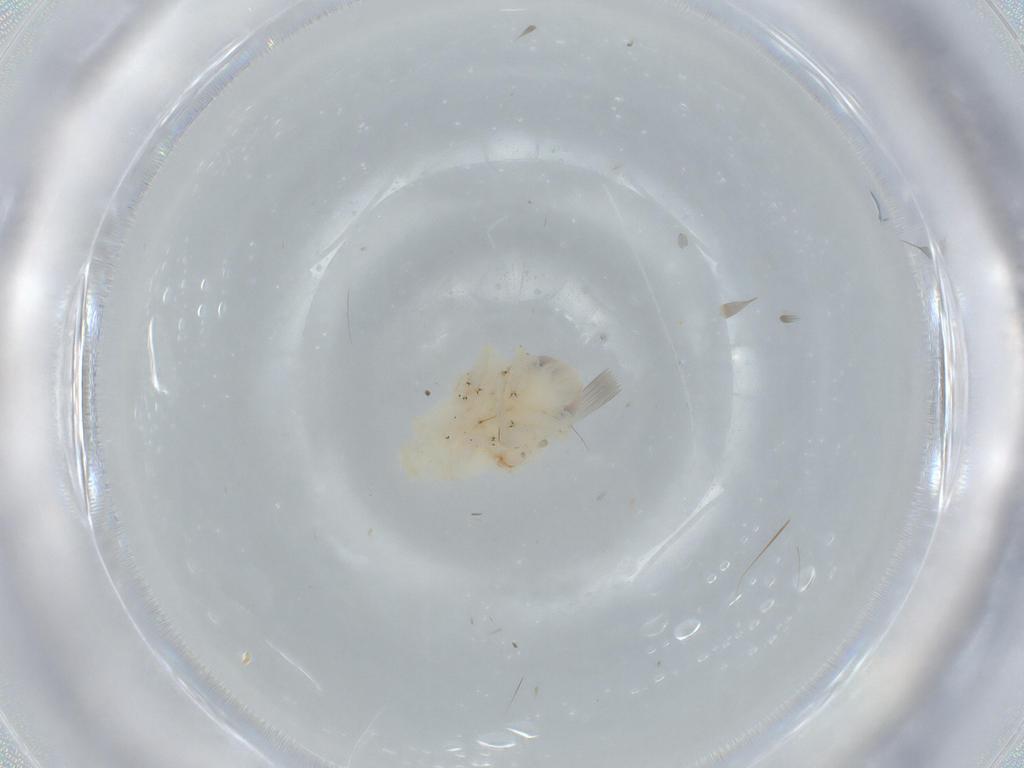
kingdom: Animalia
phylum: Arthropoda
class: Insecta
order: Hemiptera
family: Nogodinidae
